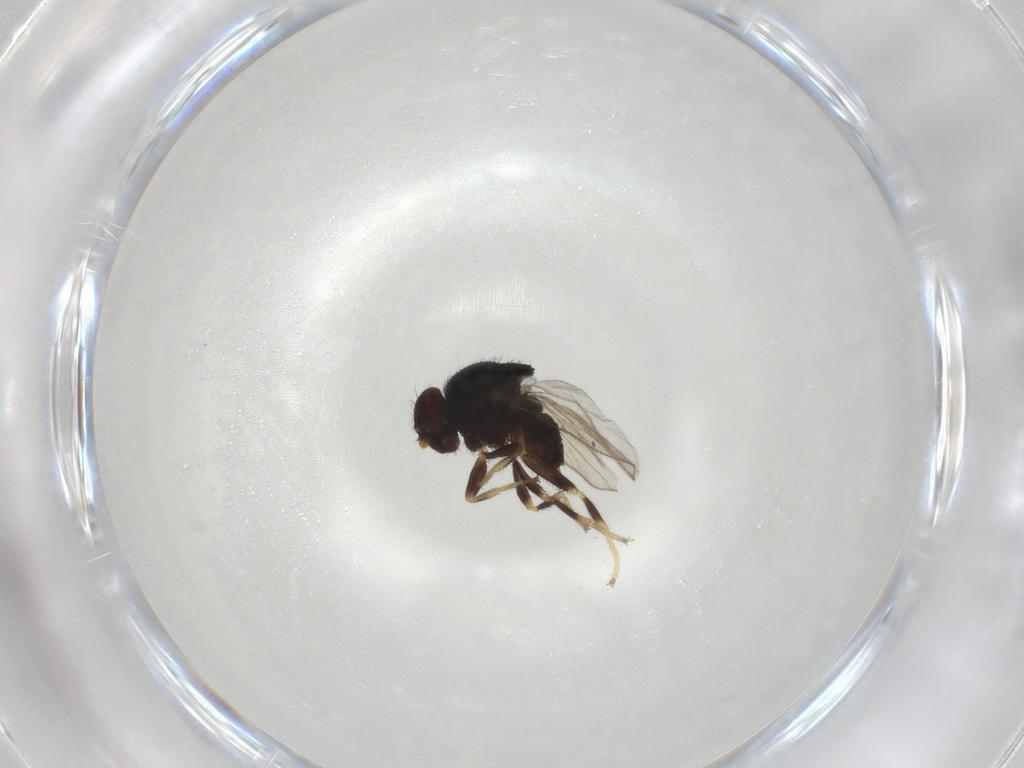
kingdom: Animalia
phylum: Arthropoda
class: Insecta
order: Diptera
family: Chloropidae
